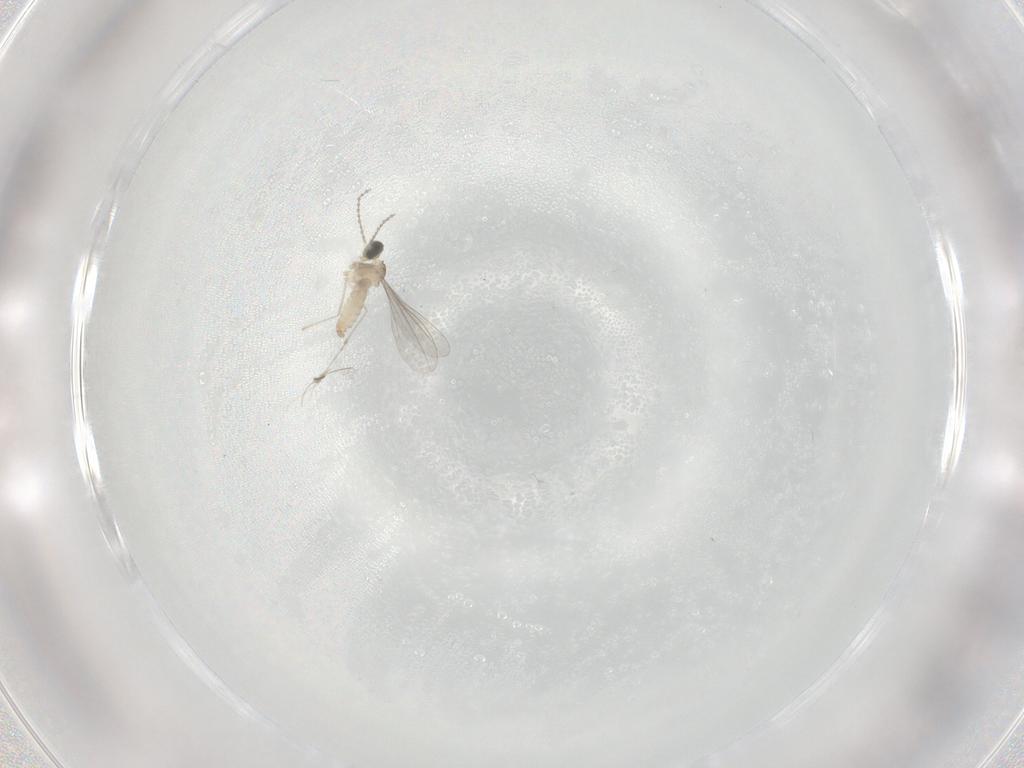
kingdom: Animalia
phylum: Arthropoda
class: Insecta
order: Diptera
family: Cecidomyiidae
